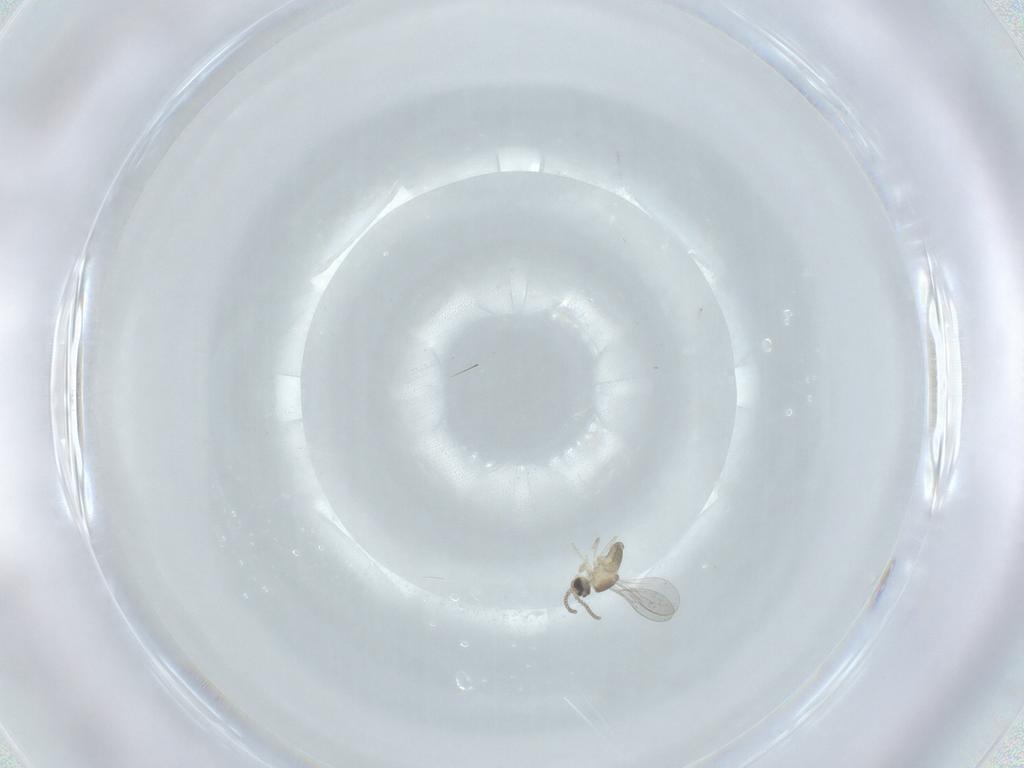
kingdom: Animalia
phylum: Arthropoda
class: Insecta
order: Diptera
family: Cecidomyiidae
